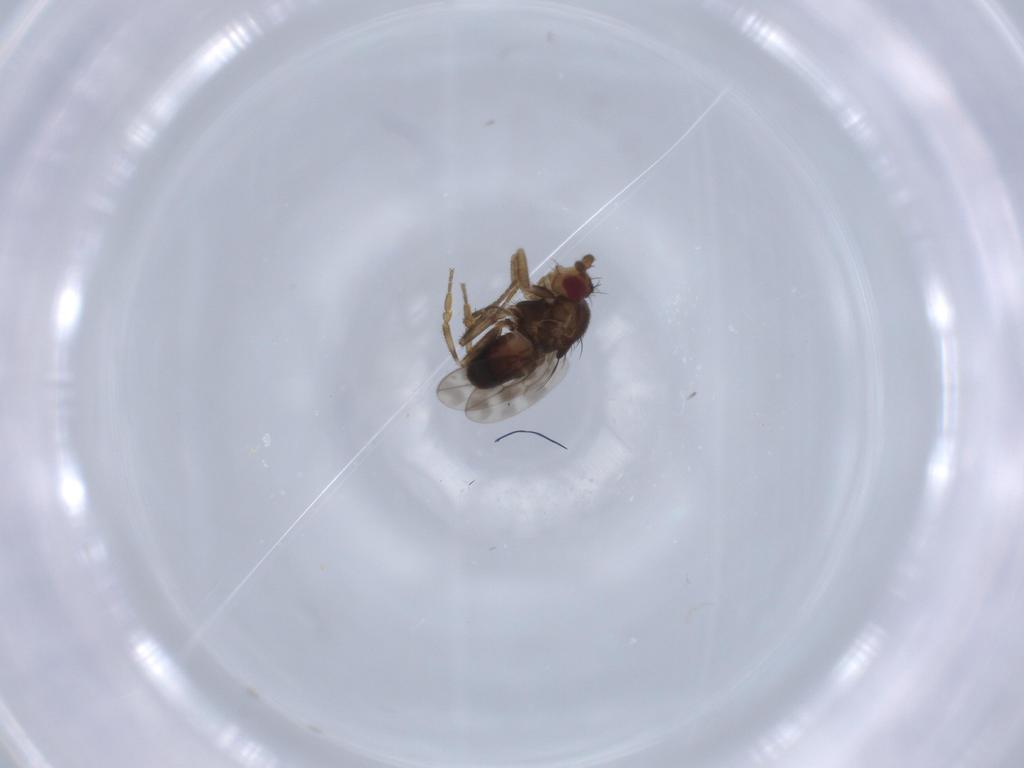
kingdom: Animalia
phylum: Arthropoda
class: Insecta
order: Diptera
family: Sphaeroceridae
